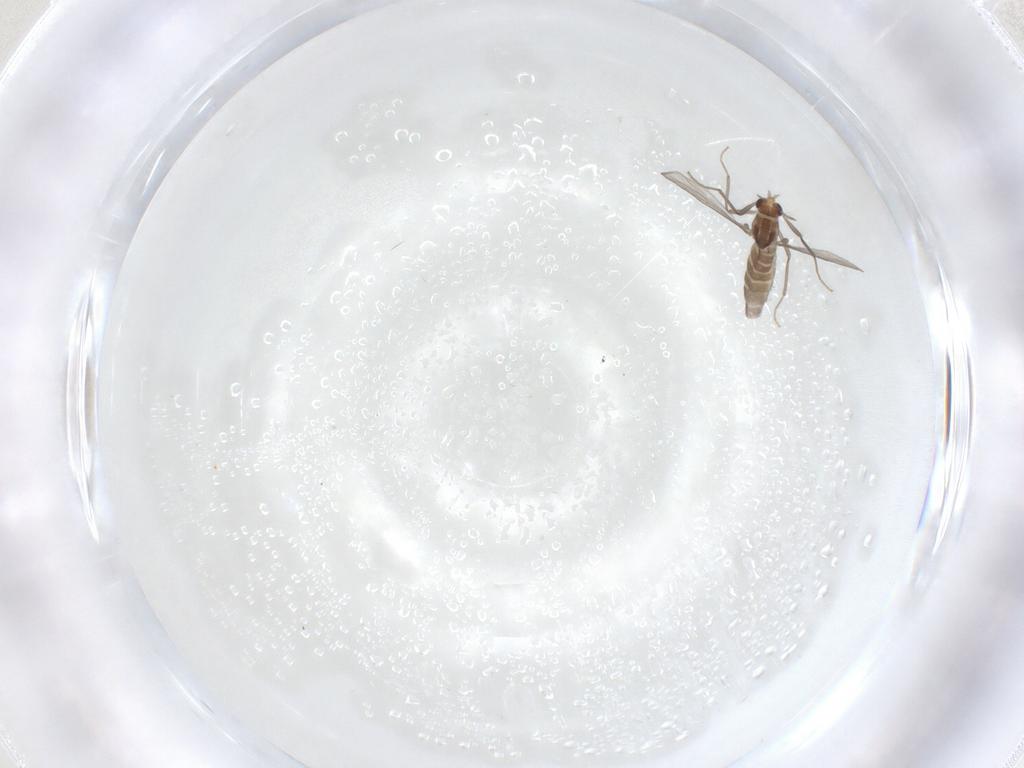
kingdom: Animalia
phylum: Arthropoda
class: Insecta
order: Diptera
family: Chironomidae
